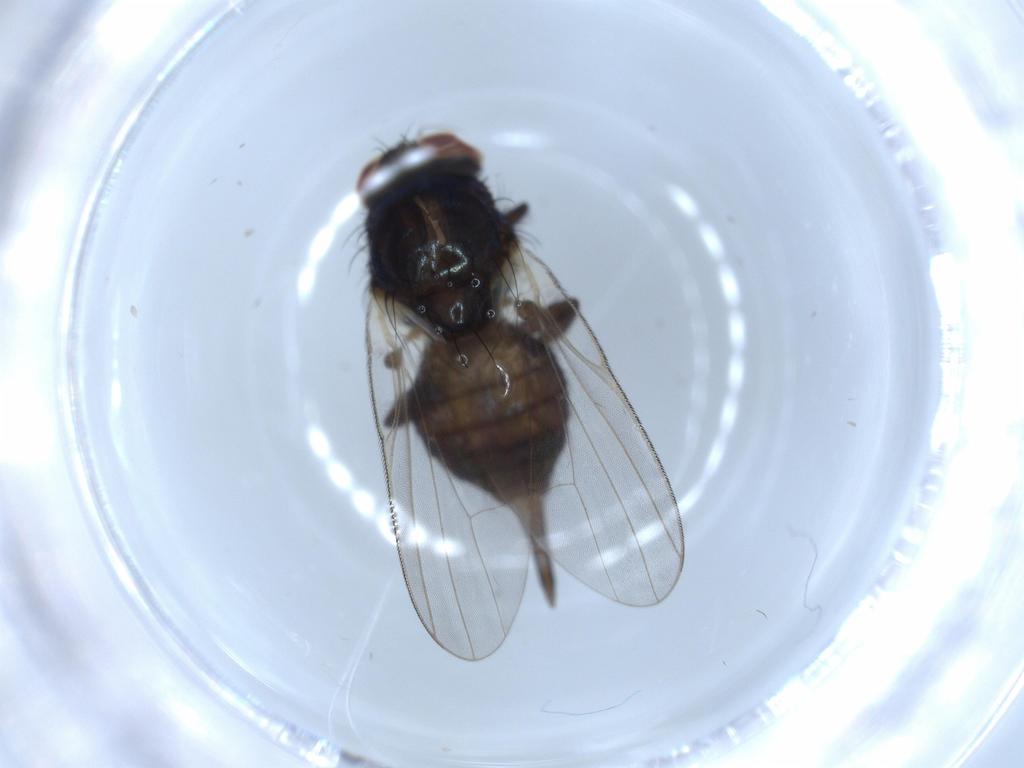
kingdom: Animalia
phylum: Arthropoda
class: Insecta
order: Diptera
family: Lonchaeidae
